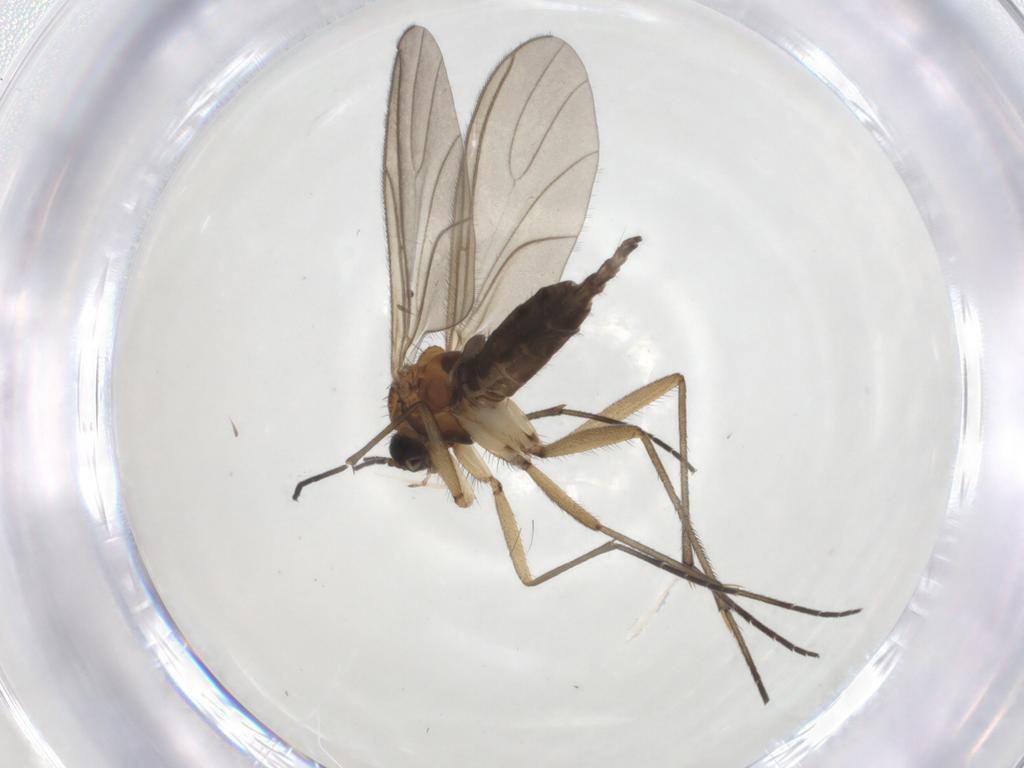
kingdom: Animalia
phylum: Arthropoda
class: Insecta
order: Diptera
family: Sciaridae
